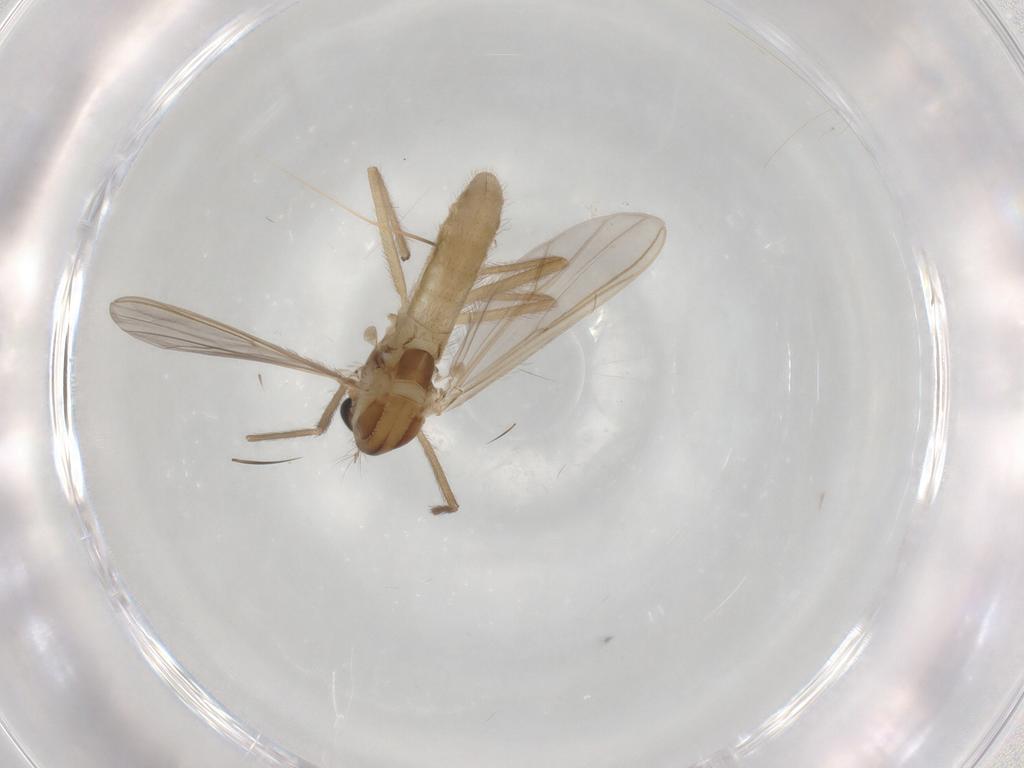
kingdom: Animalia
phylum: Arthropoda
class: Insecta
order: Diptera
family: Chironomidae
